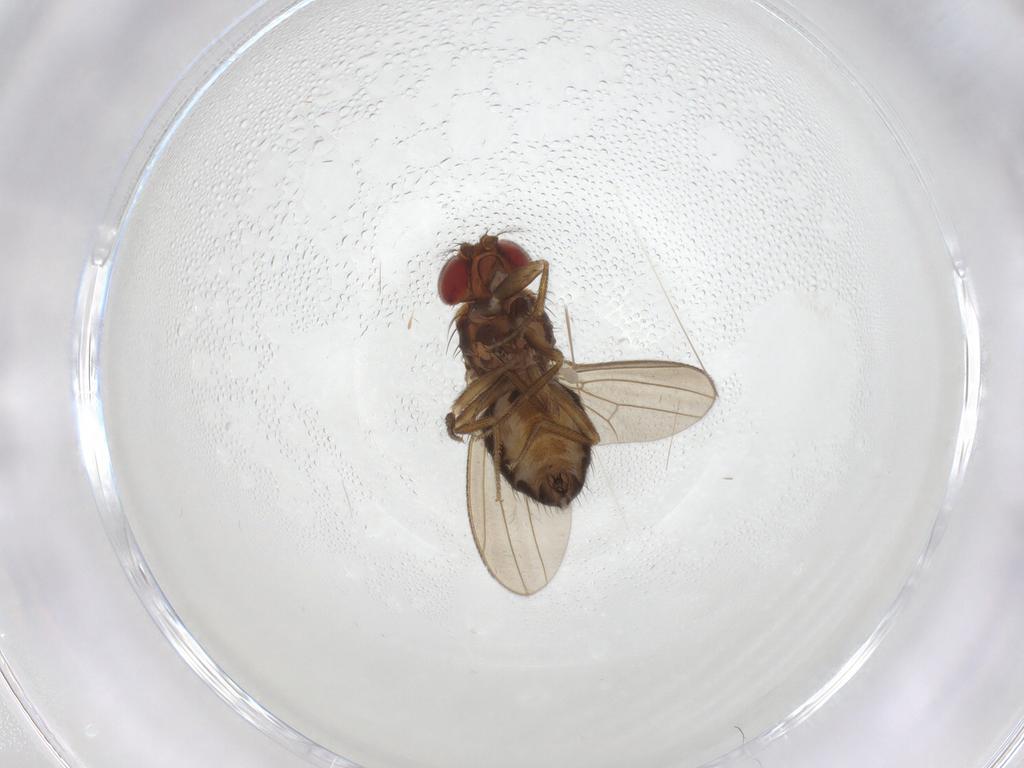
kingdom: Animalia
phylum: Arthropoda
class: Insecta
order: Diptera
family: Drosophilidae
